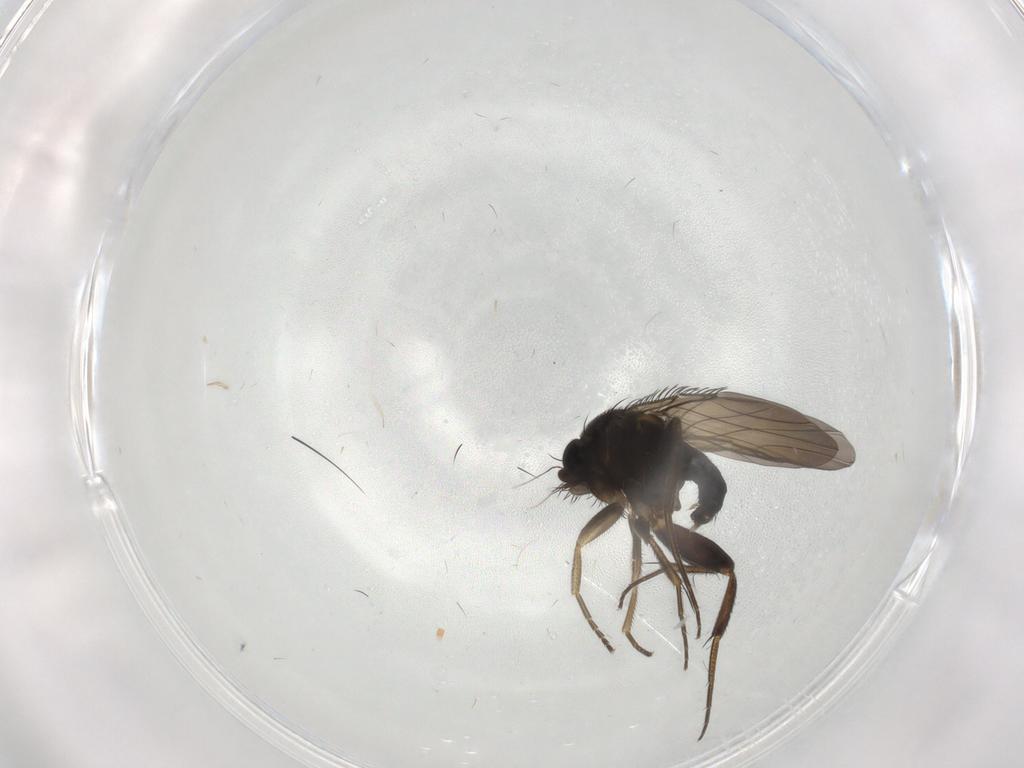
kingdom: Animalia
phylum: Arthropoda
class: Insecta
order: Diptera
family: Phoridae
